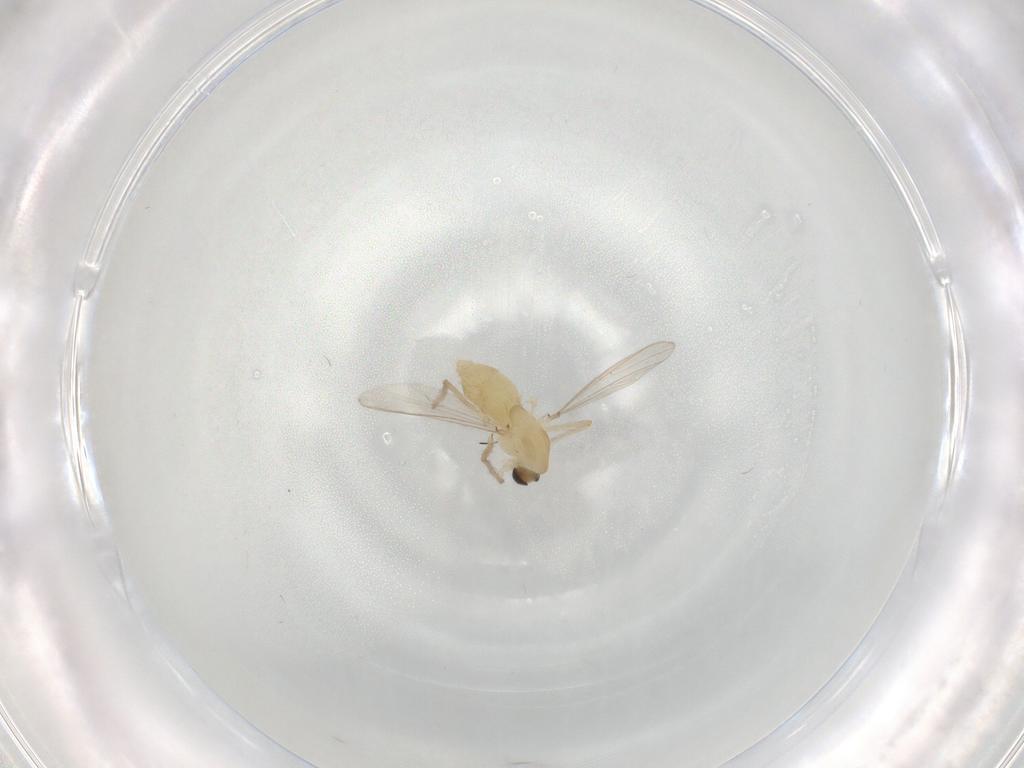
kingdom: Animalia
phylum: Arthropoda
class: Insecta
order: Diptera
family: Chironomidae
